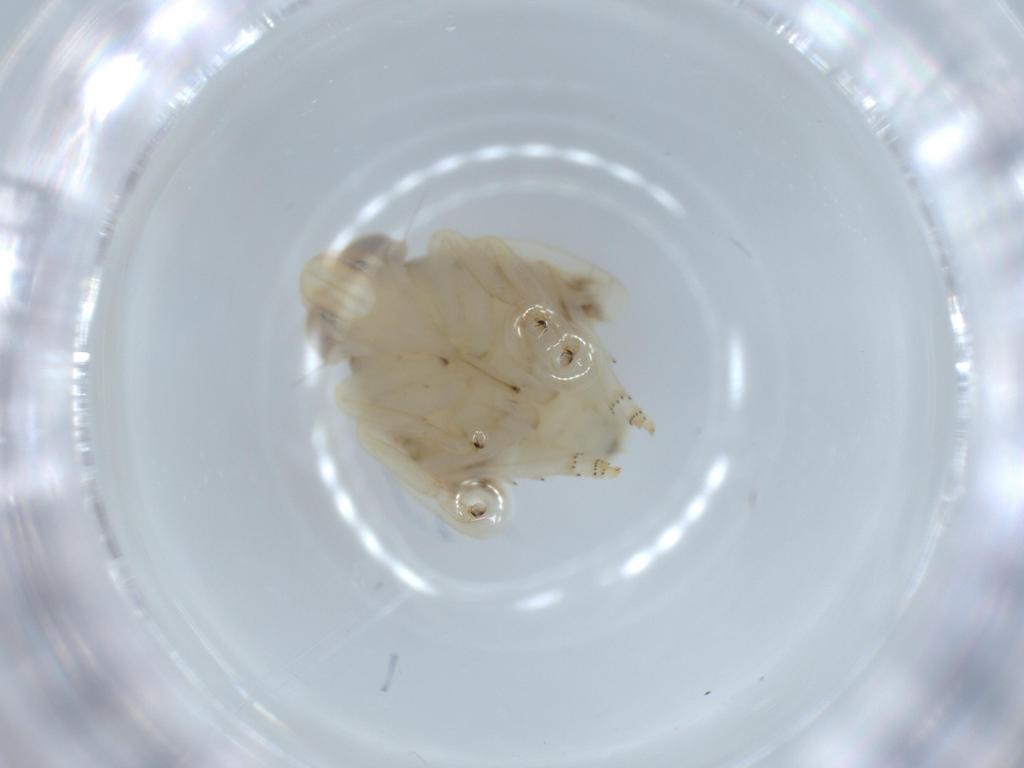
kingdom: Animalia
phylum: Arthropoda
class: Insecta
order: Hemiptera
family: Nogodinidae
